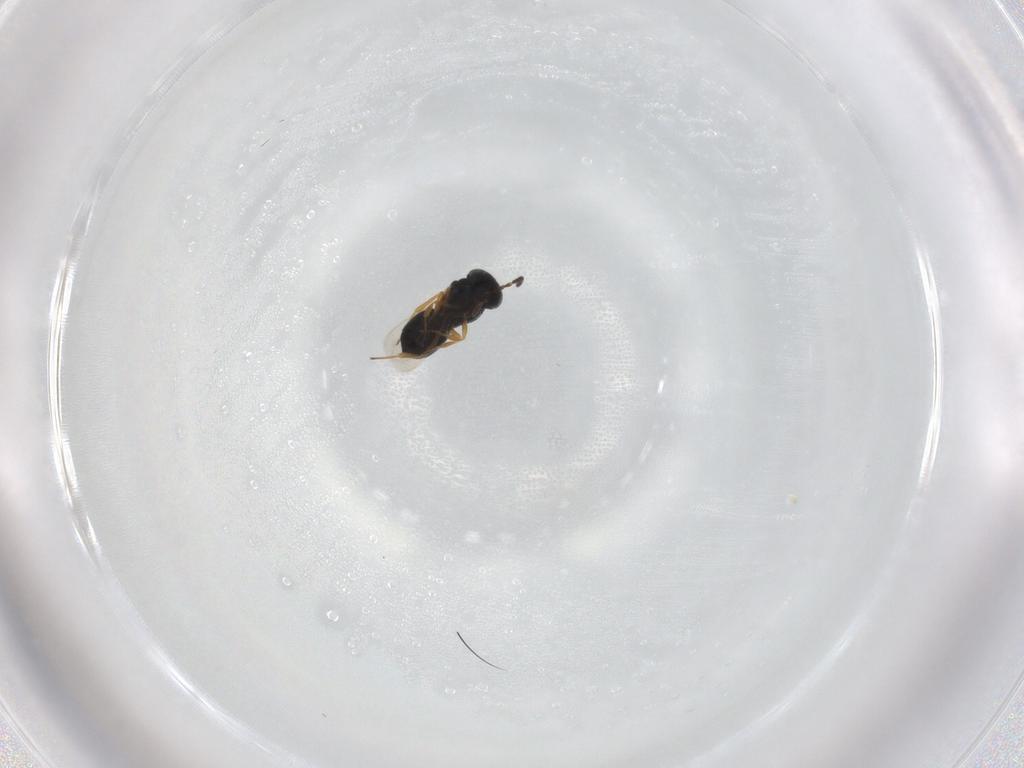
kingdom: Animalia
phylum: Arthropoda
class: Insecta
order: Hymenoptera
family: Scelionidae
